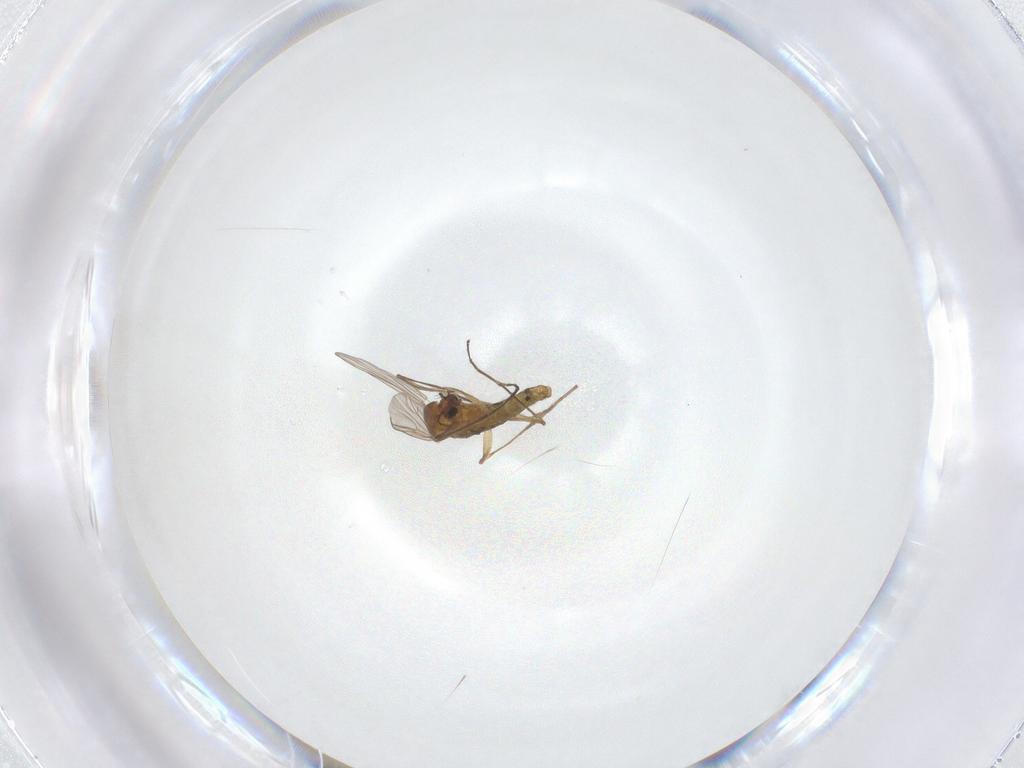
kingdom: Animalia
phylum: Arthropoda
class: Insecta
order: Diptera
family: Chironomidae
